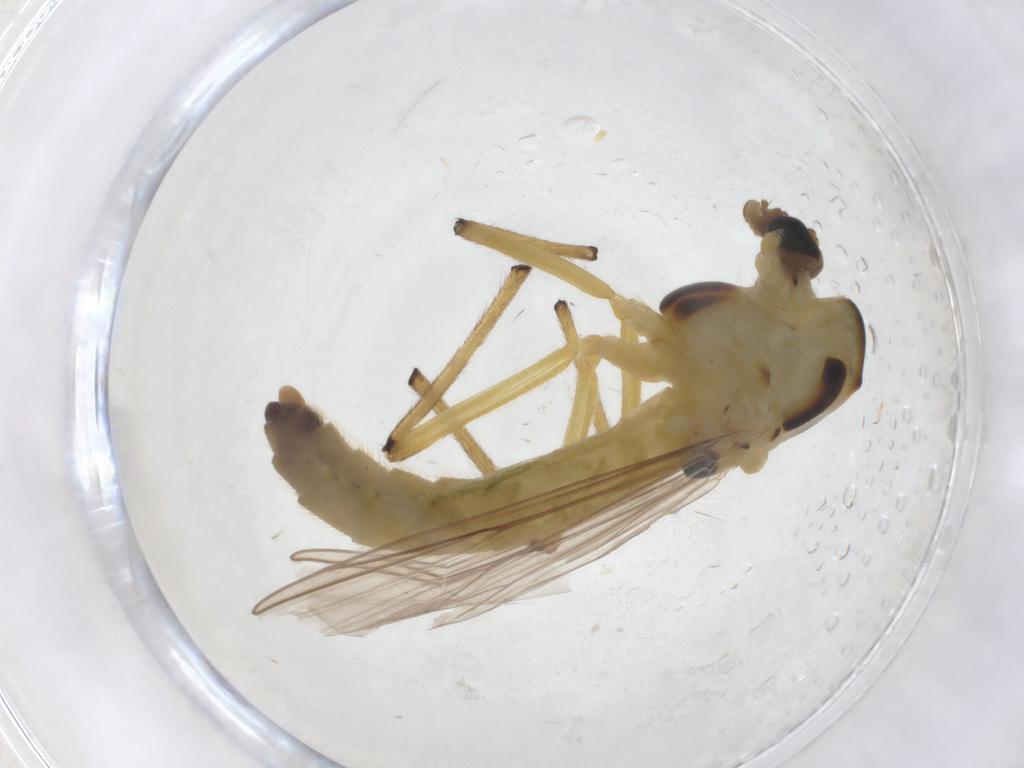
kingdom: Animalia
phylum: Arthropoda
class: Insecta
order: Diptera
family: Chironomidae
